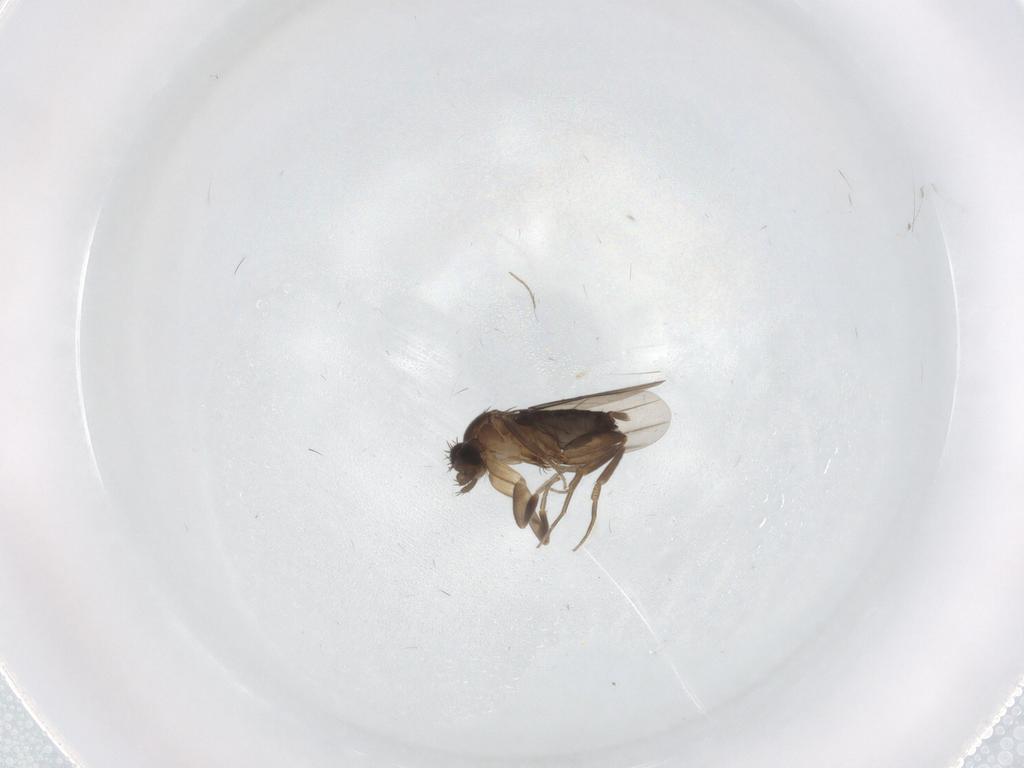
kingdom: Animalia
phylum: Arthropoda
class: Insecta
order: Diptera
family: Phoridae
